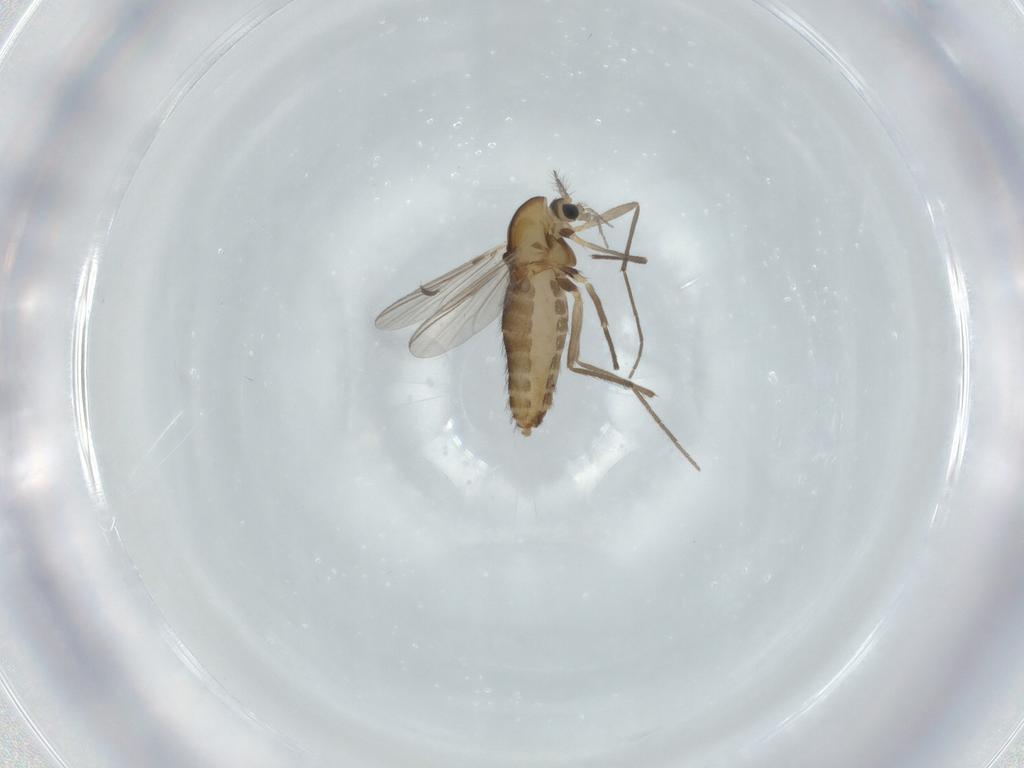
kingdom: Animalia
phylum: Arthropoda
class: Insecta
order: Diptera
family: Chironomidae
